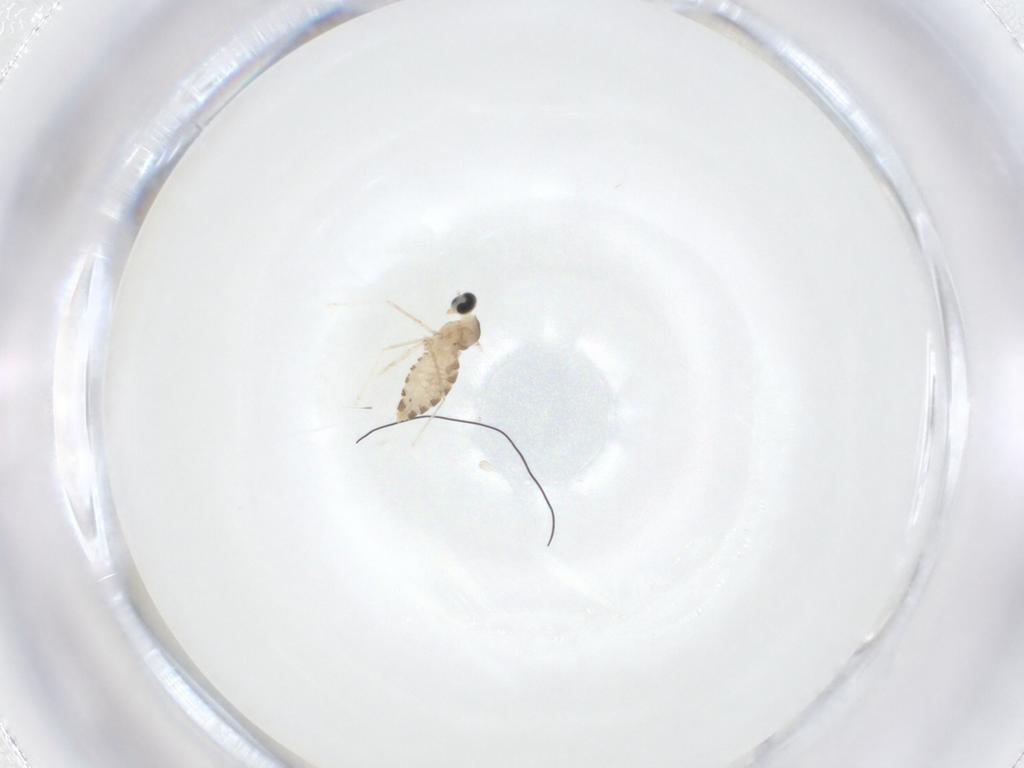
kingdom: Animalia
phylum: Arthropoda
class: Insecta
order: Diptera
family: Cecidomyiidae
